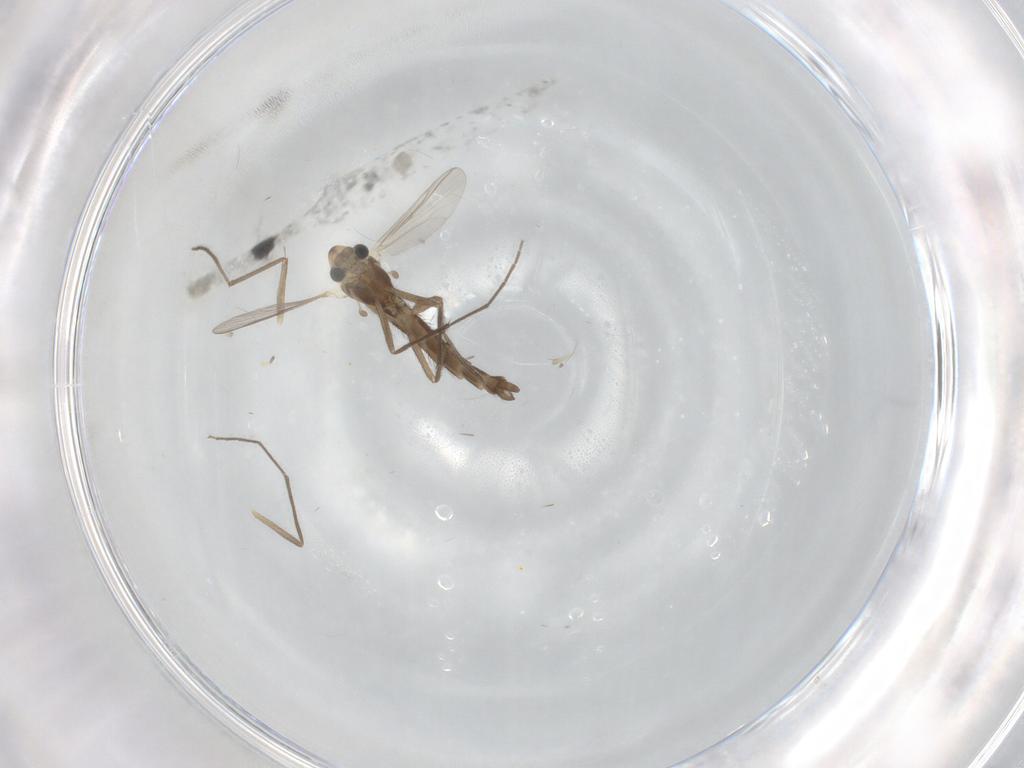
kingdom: Animalia
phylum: Arthropoda
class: Insecta
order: Diptera
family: Chironomidae
